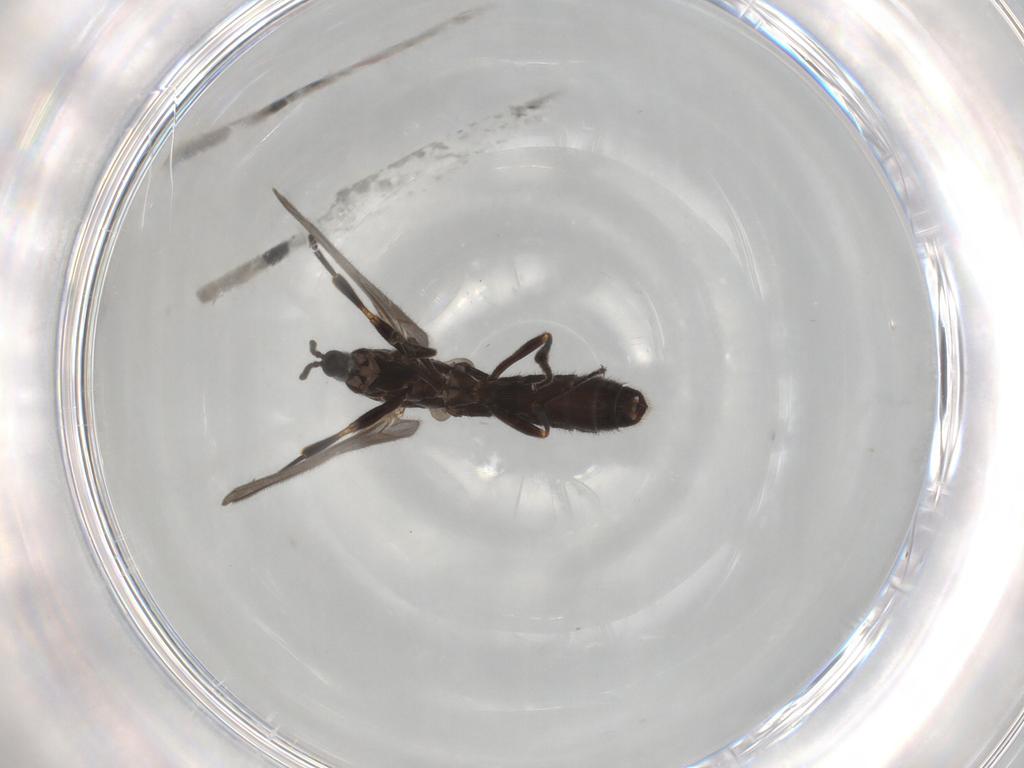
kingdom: Animalia
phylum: Arthropoda
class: Insecta
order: Diptera
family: Scatopsidae
